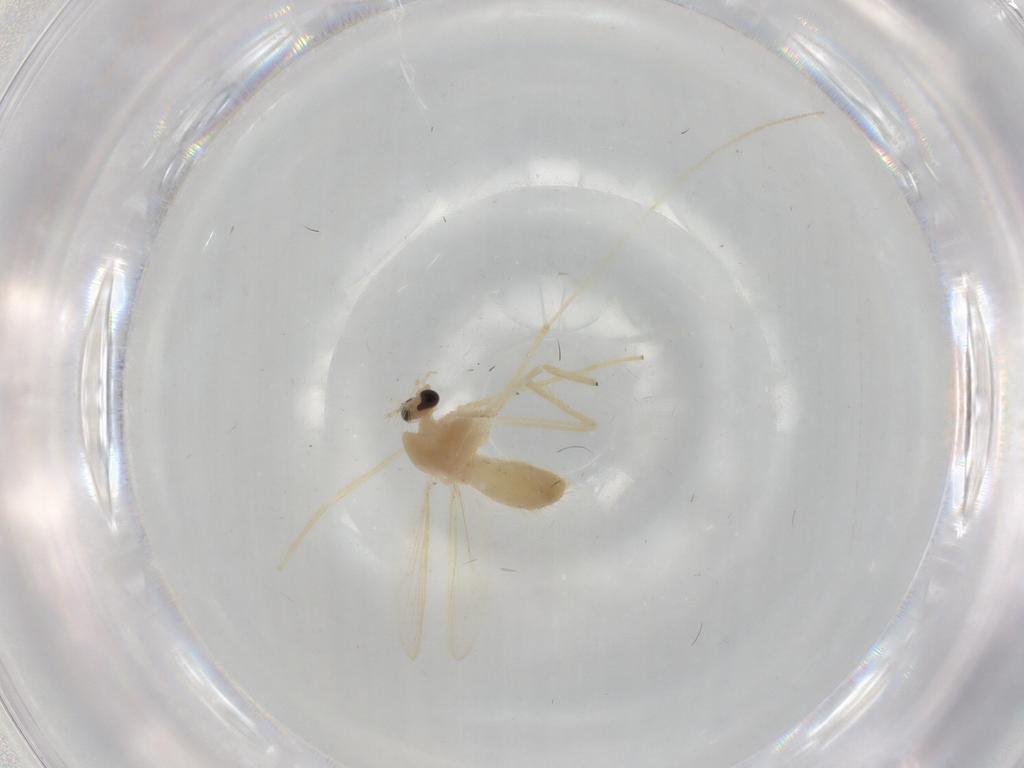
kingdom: Animalia
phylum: Arthropoda
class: Insecta
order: Diptera
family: Chironomidae
